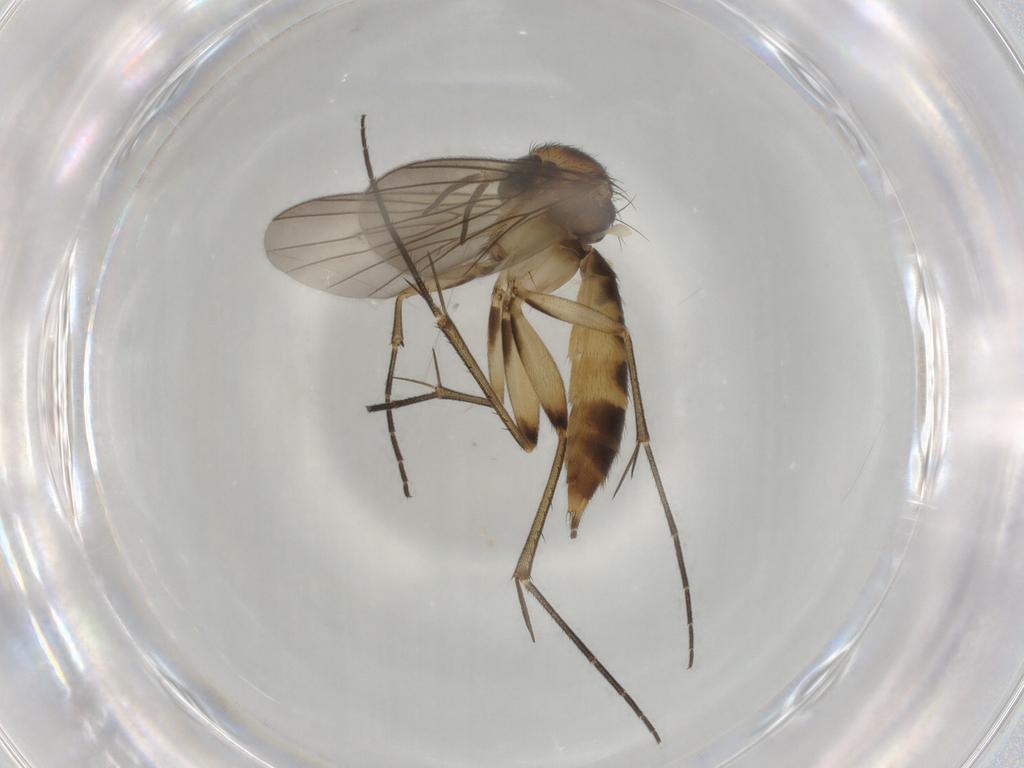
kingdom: Animalia
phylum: Arthropoda
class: Insecta
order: Diptera
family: Mycetophilidae
